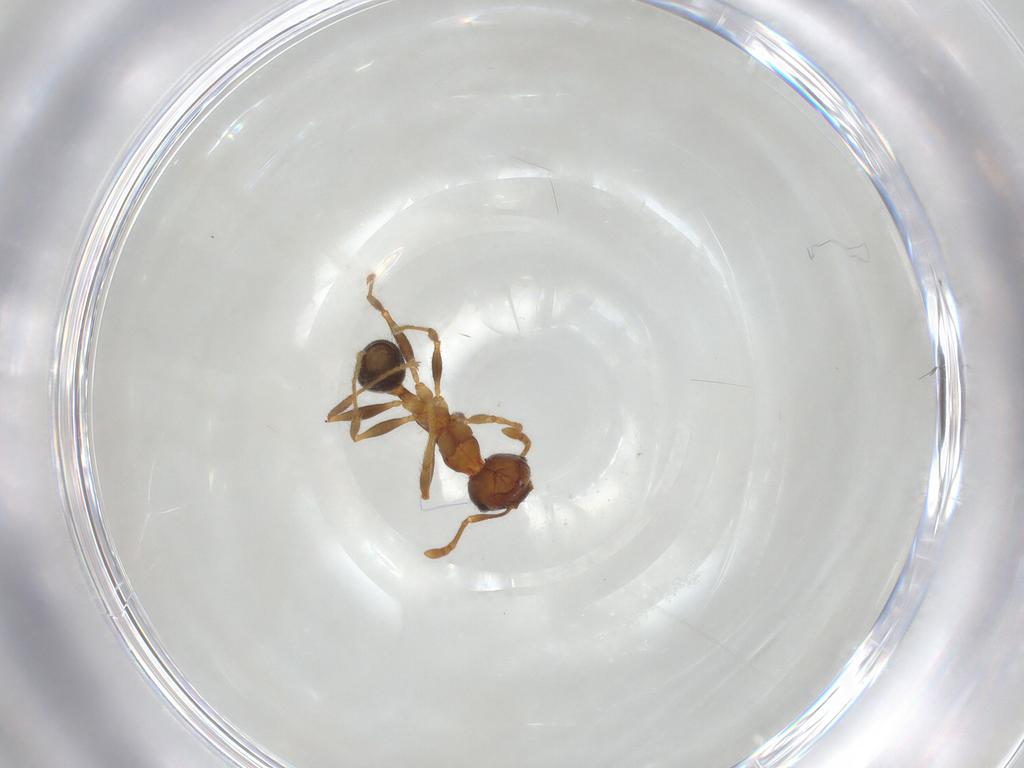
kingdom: Animalia
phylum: Arthropoda
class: Insecta
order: Hymenoptera
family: Formicidae
